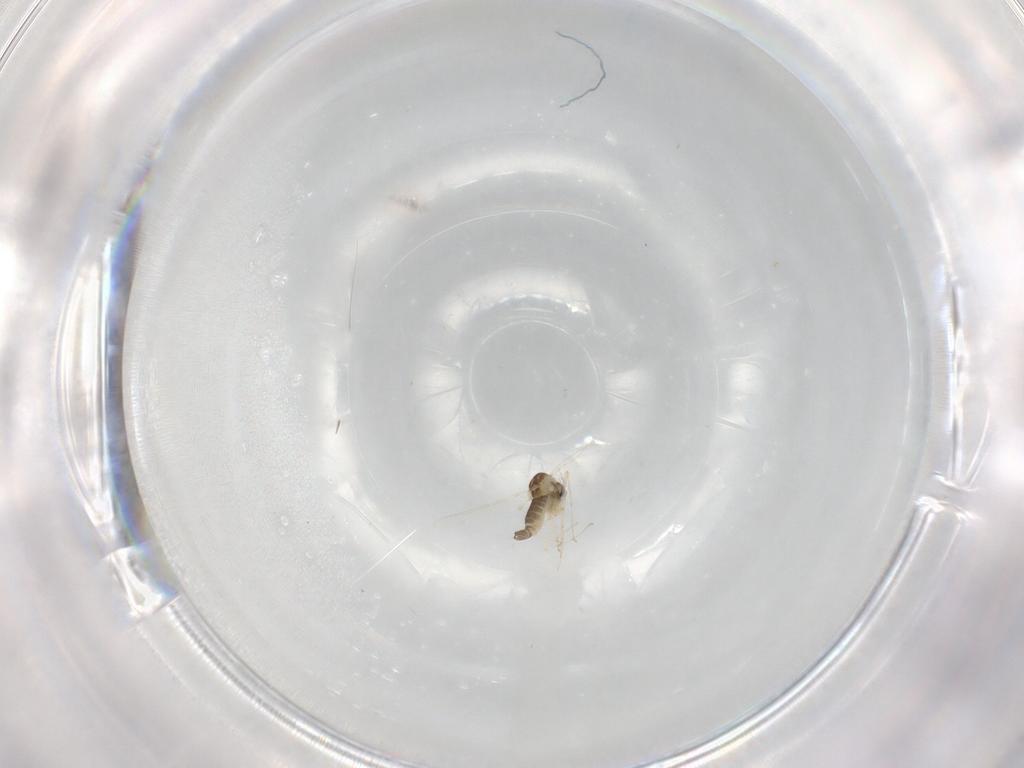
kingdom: Animalia
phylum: Arthropoda
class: Insecta
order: Diptera
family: Chironomidae
